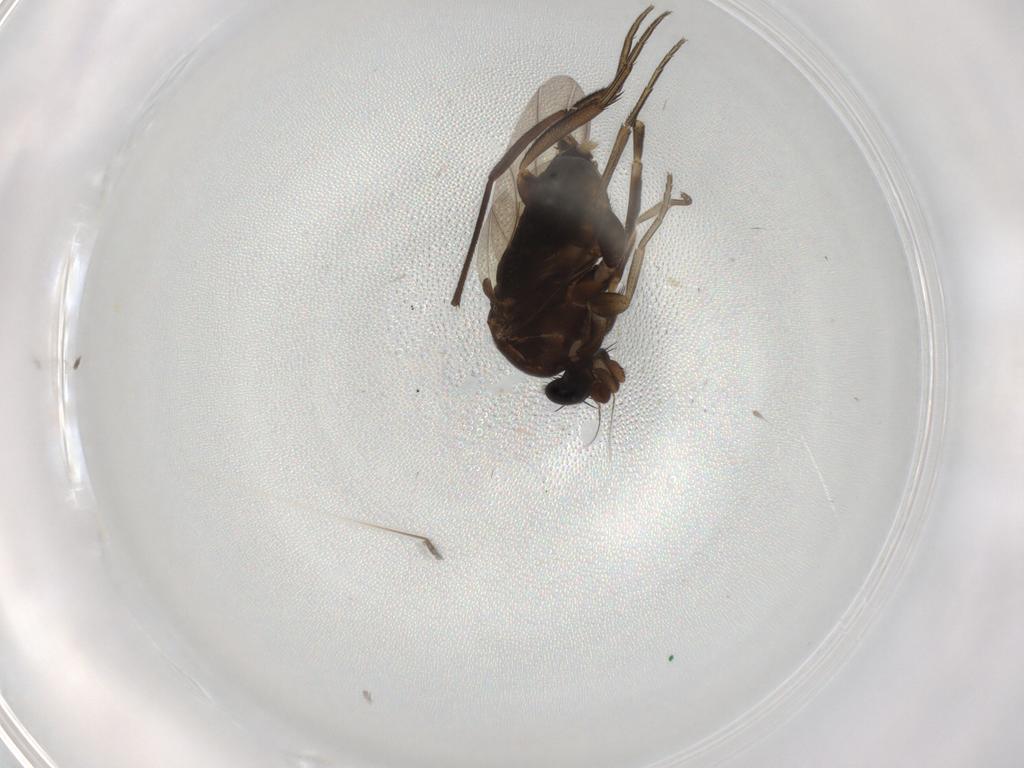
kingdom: Animalia
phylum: Arthropoda
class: Insecta
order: Diptera
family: Phoridae
